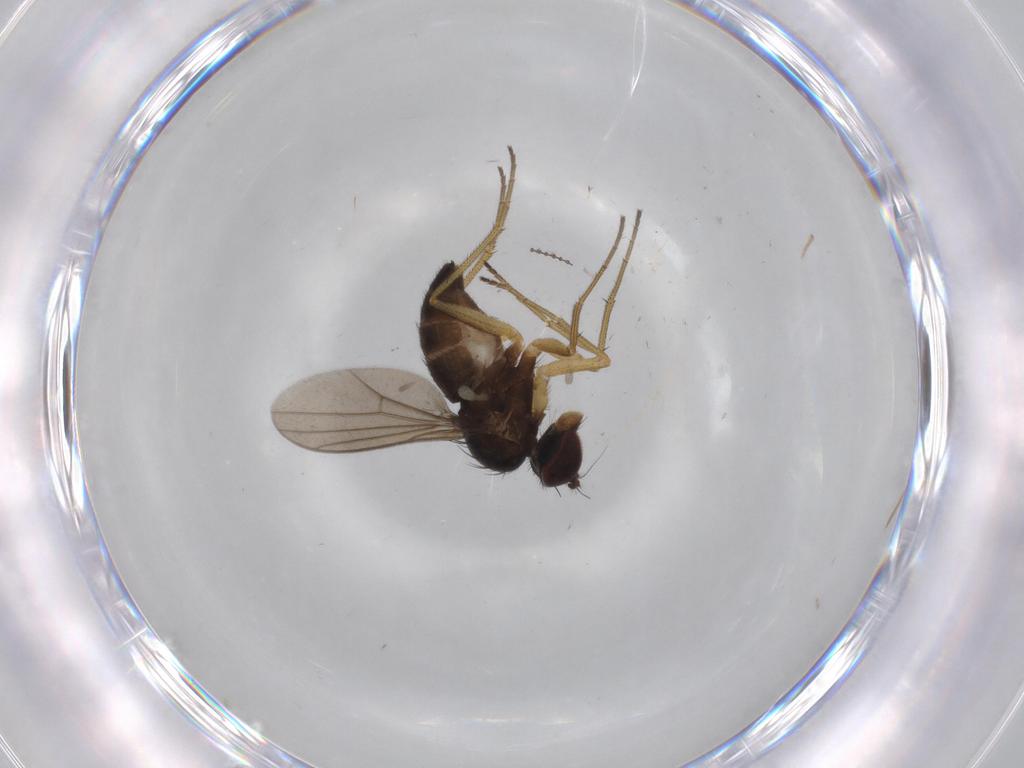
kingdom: Animalia
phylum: Arthropoda
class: Insecta
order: Diptera
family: Dolichopodidae
